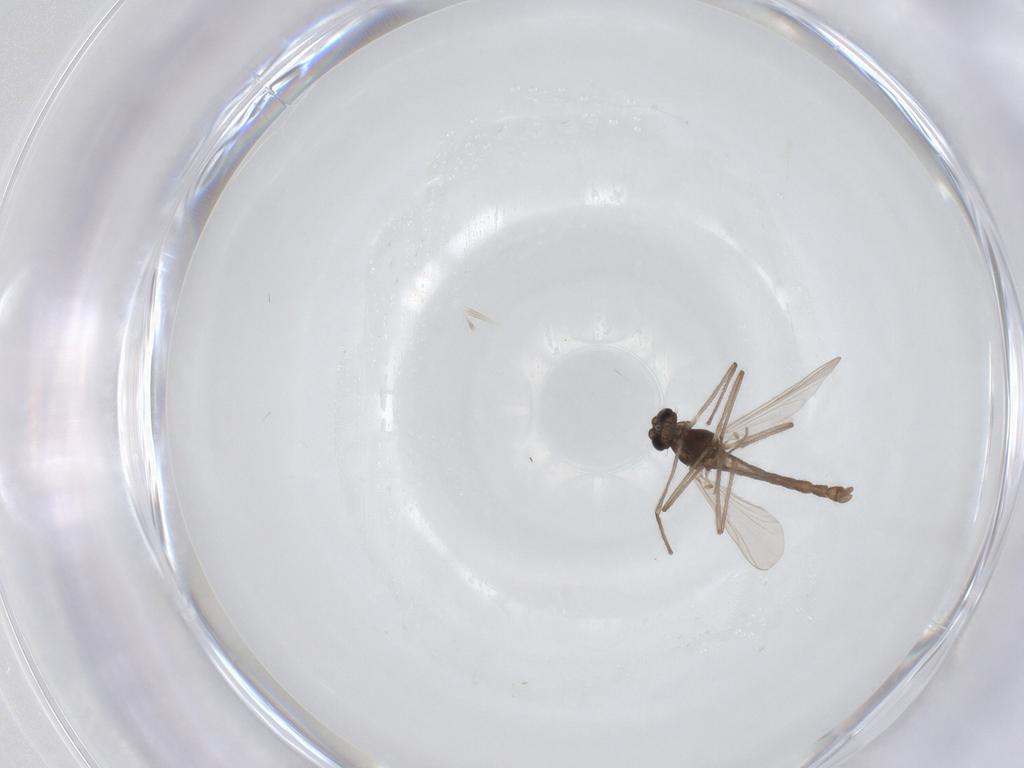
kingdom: Animalia
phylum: Arthropoda
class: Insecta
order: Diptera
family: Chironomidae
